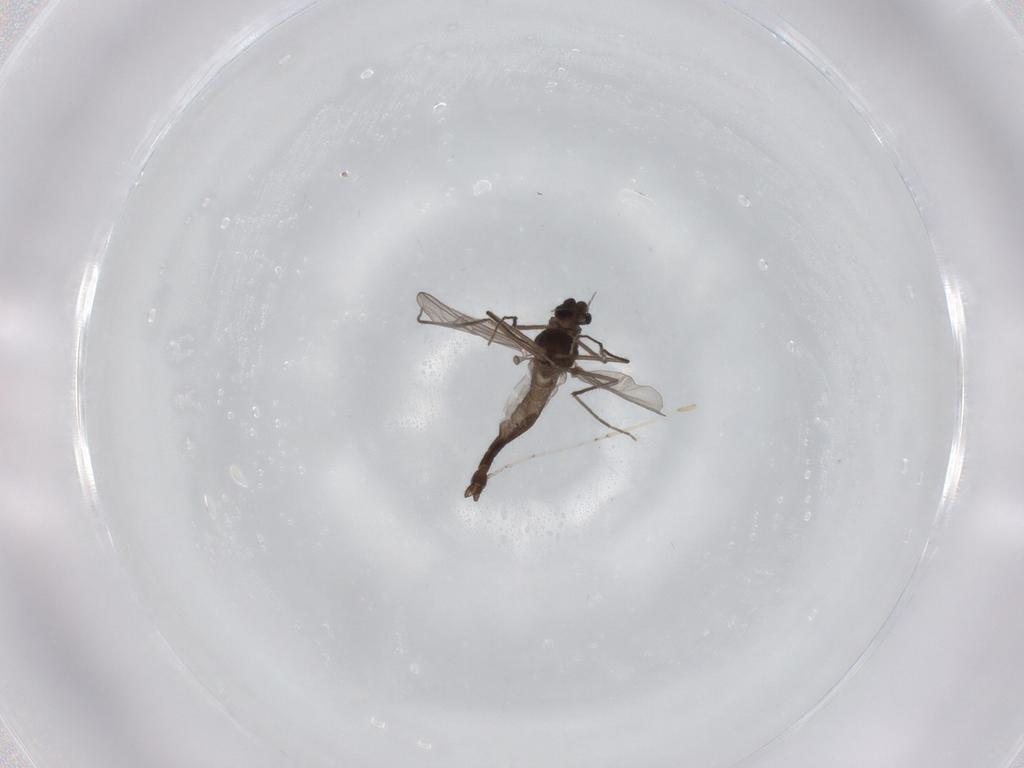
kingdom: Animalia
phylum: Arthropoda
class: Insecta
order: Diptera
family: Chironomidae
